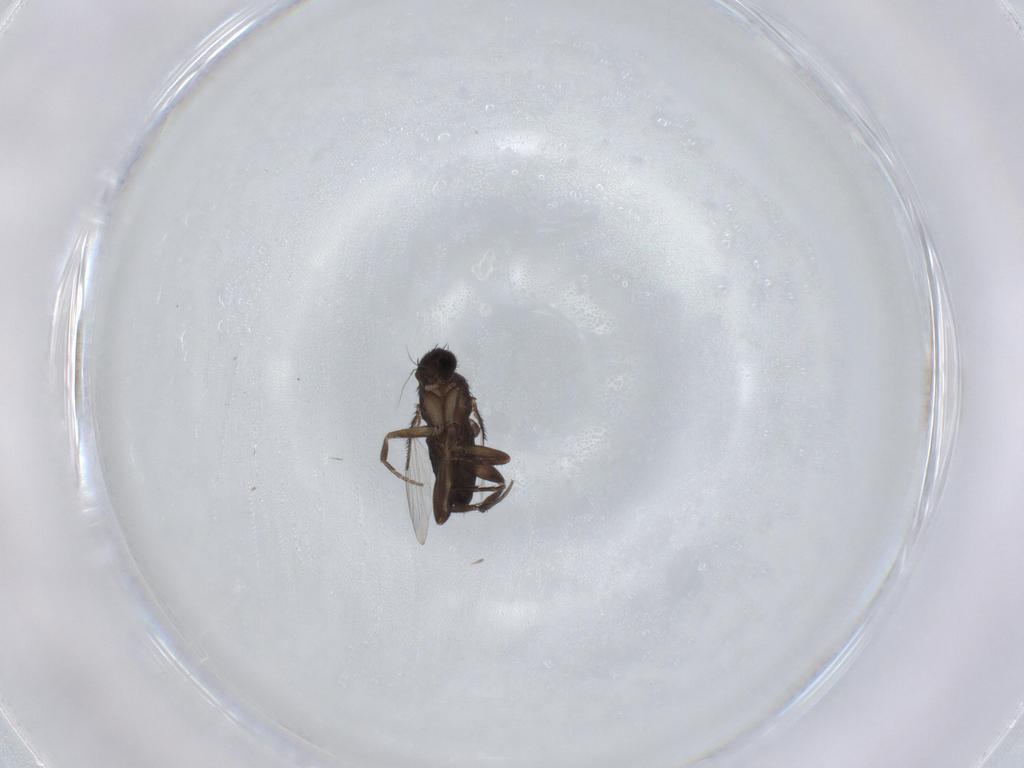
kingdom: Animalia
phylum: Arthropoda
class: Insecta
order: Diptera
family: Phoridae
